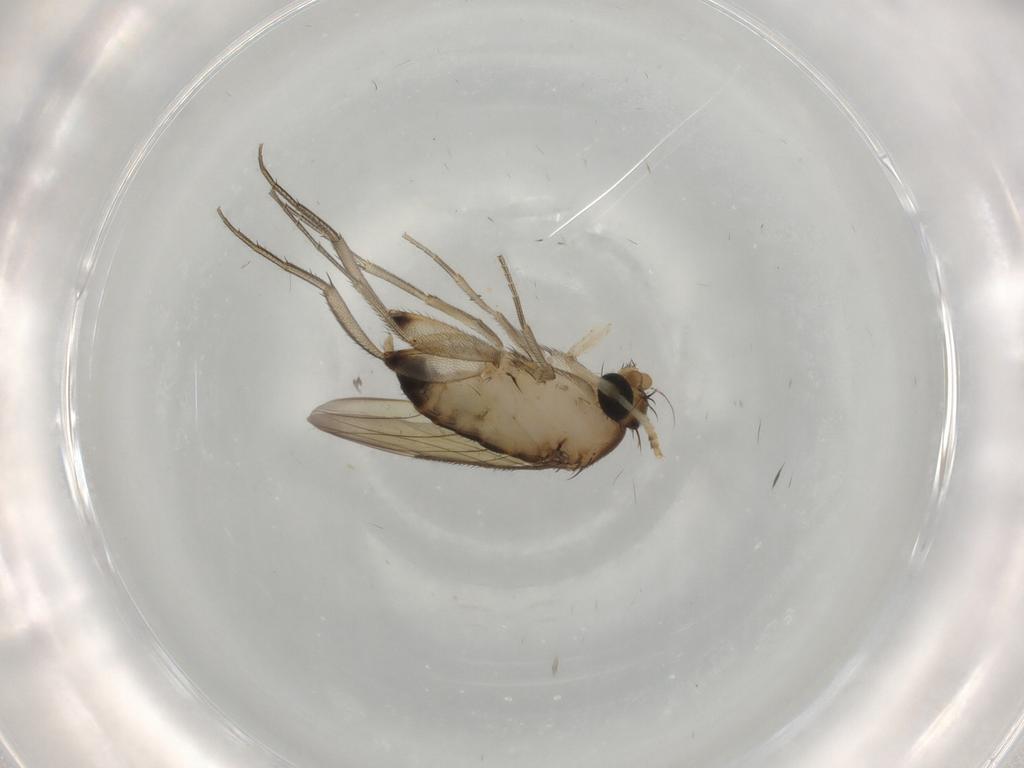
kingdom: Animalia
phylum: Arthropoda
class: Insecta
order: Diptera
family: Phoridae
